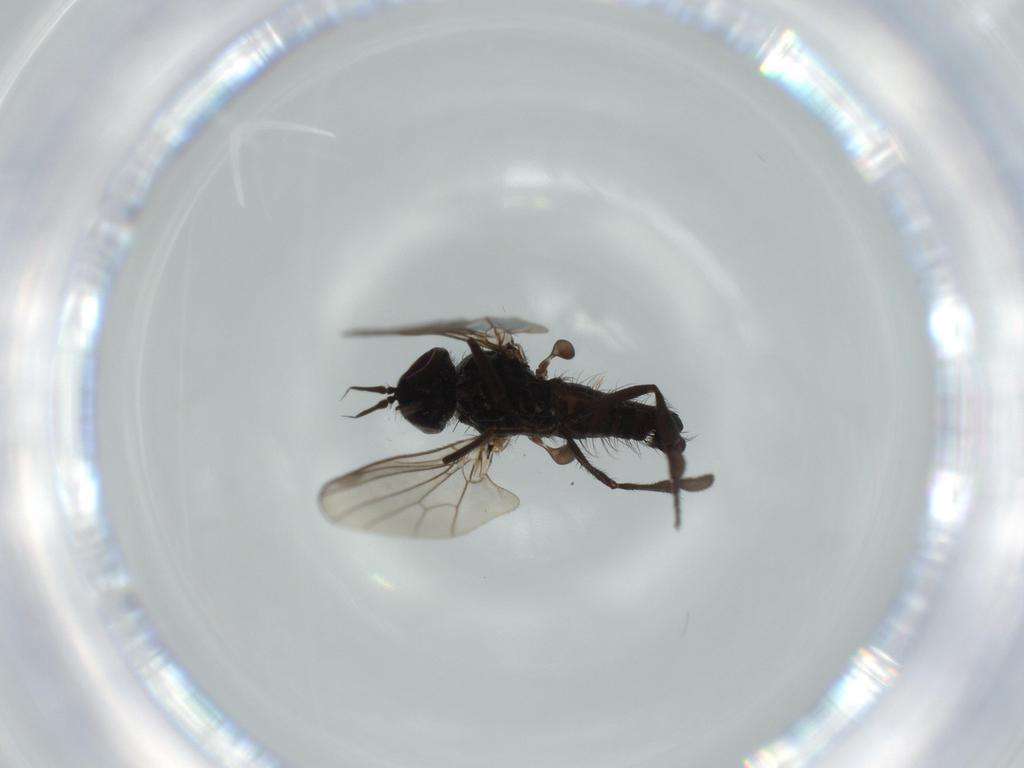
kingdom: Animalia
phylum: Arthropoda
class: Insecta
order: Diptera
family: Dolichopodidae
